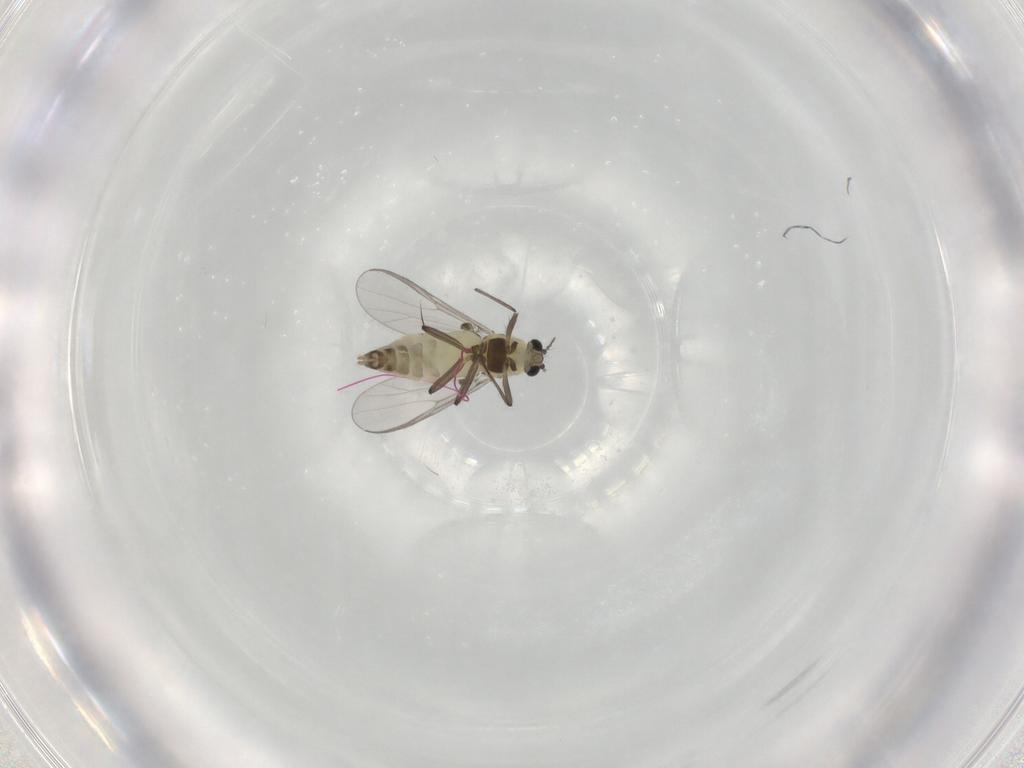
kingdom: Animalia
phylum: Arthropoda
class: Insecta
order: Diptera
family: Chironomidae
